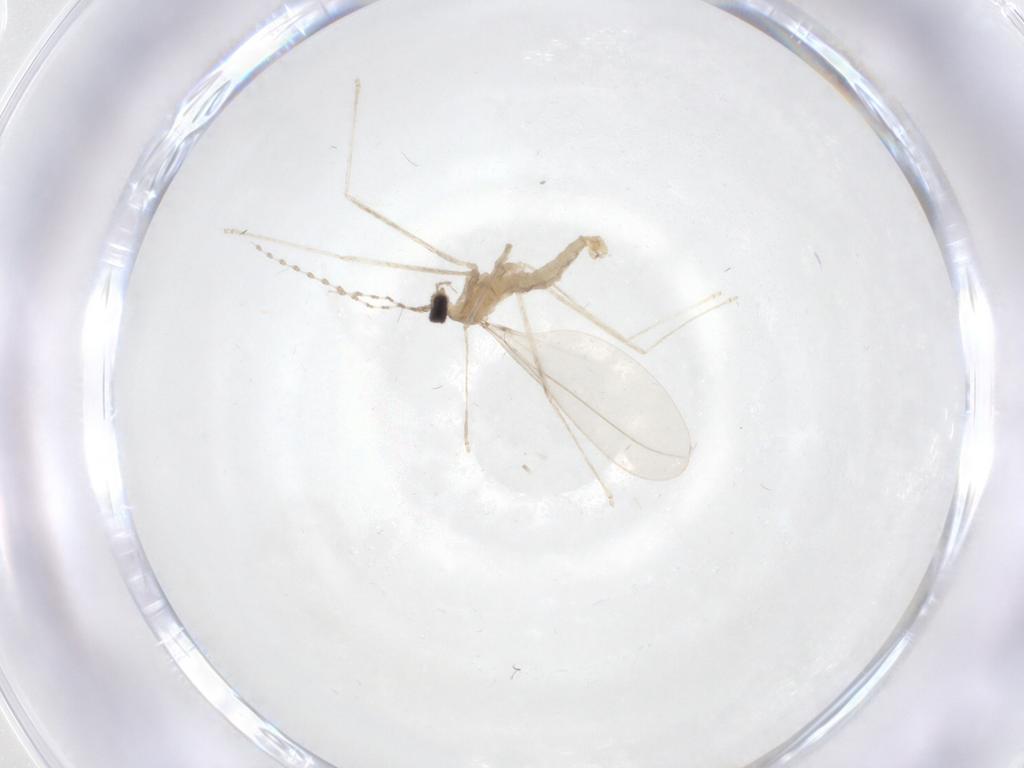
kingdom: Animalia
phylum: Arthropoda
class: Insecta
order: Diptera
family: Cecidomyiidae
